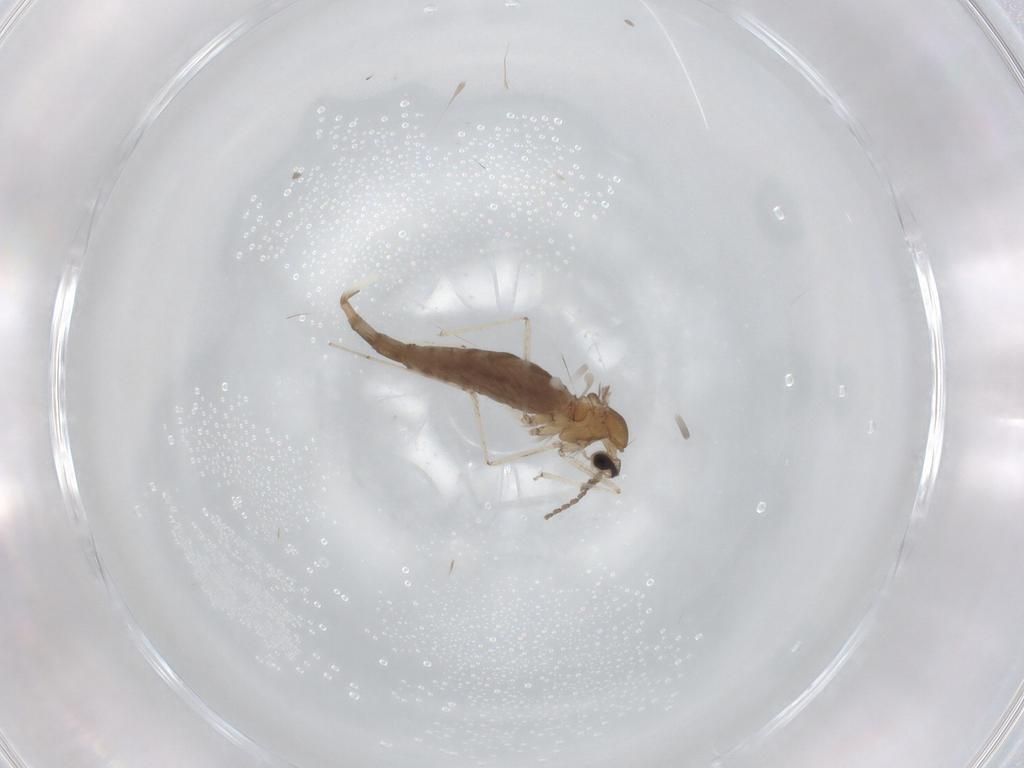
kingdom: Animalia
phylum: Arthropoda
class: Insecta
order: Diptera
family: Cecidomyiidae
